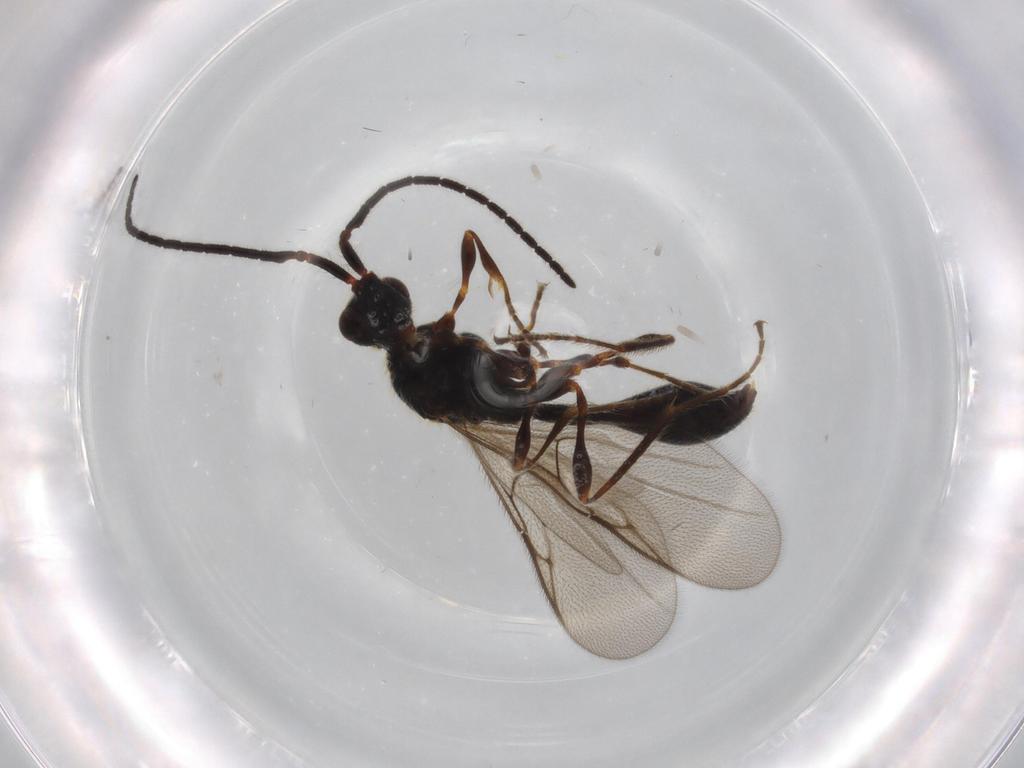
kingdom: Animalia
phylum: Arthropoda
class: Insecta
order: Hymenoptera
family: Diapriidae
